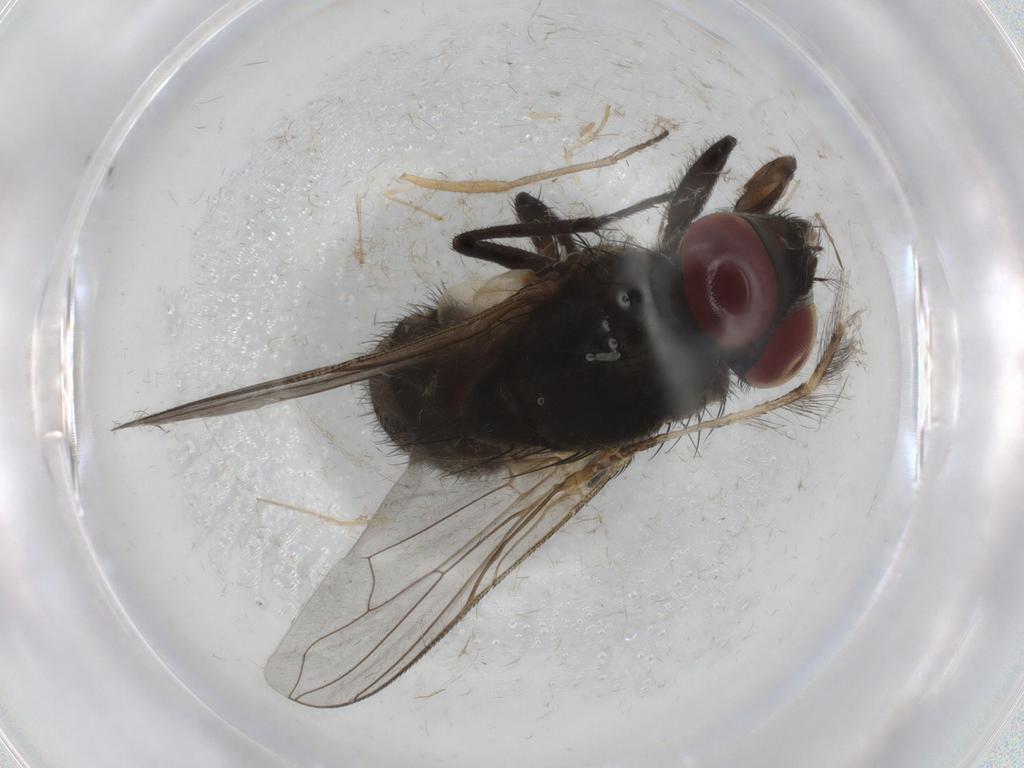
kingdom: Animalia
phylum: Arthropoda
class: Insecta
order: Diptera
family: Muscidae
